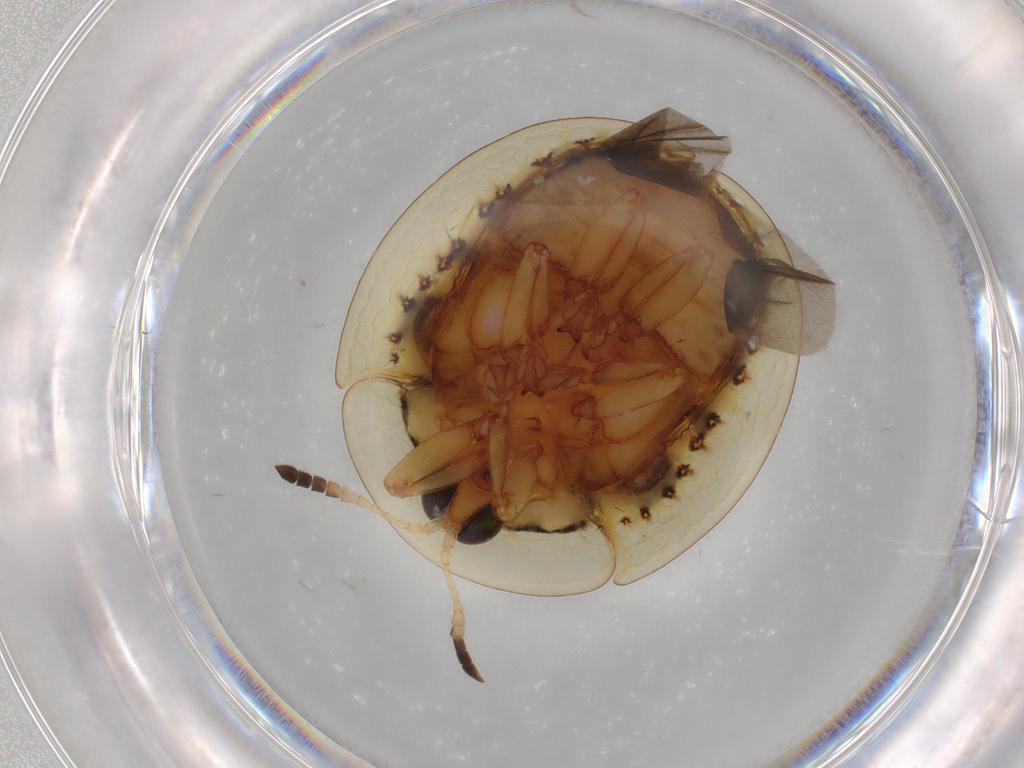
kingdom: Animalia
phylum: Arthropoda
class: Insecta
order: Coleoptera
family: Chrysomelidae
